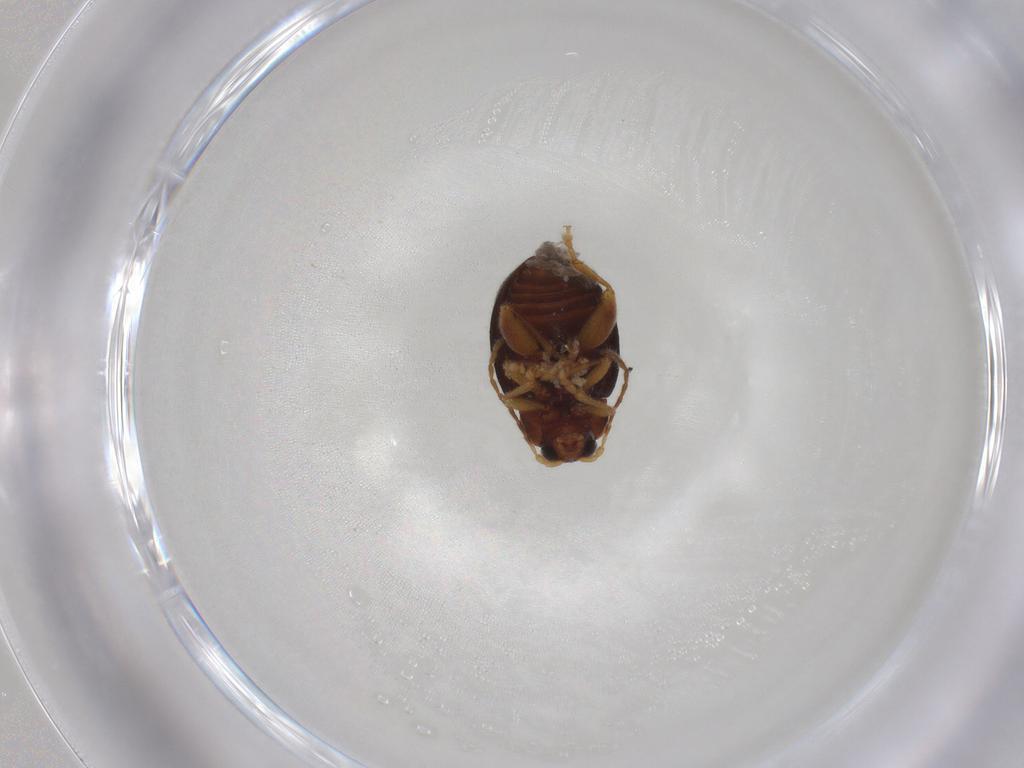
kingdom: Animalia
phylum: Arthropoda
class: Insecta
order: Coleoptera
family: Chrysomelidae
